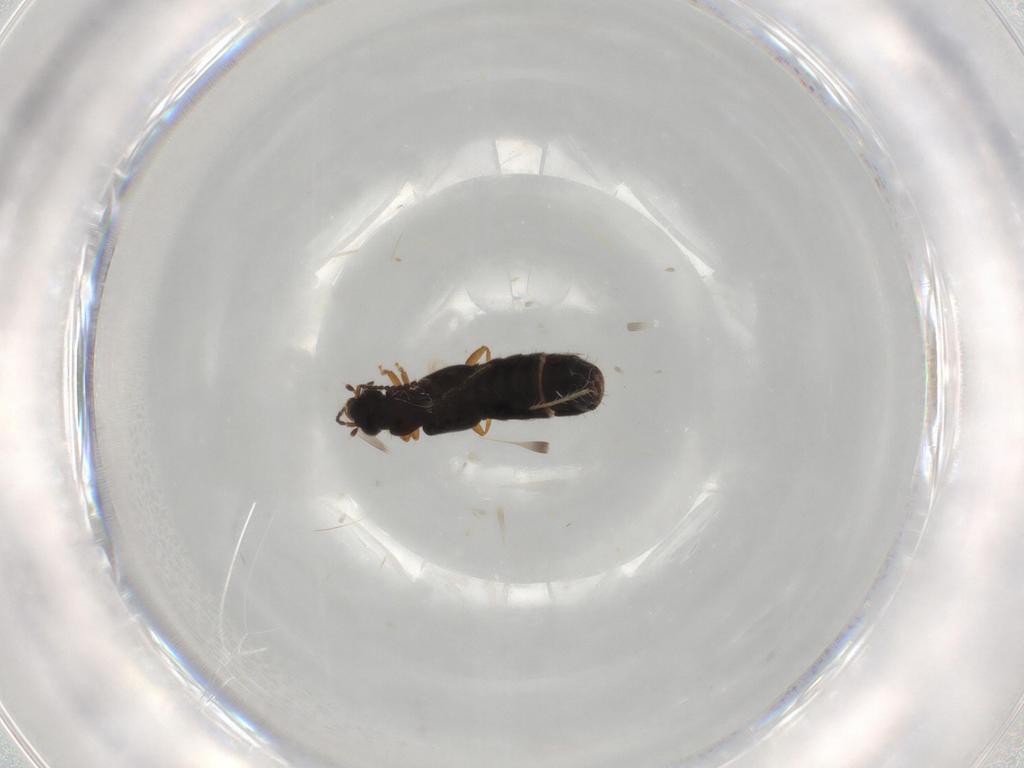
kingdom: Animalia
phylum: Arthropoda
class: Insecta
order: Coleoptera
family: Staphylinidae
